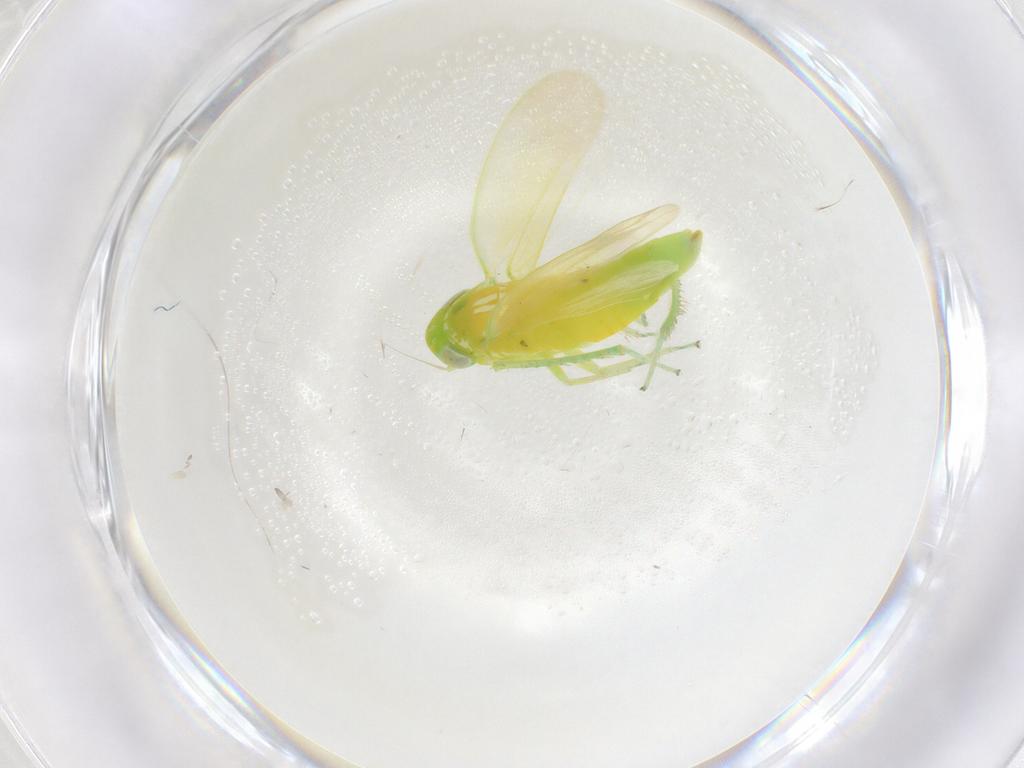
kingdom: Animalia
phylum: Arthropoda
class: Insecta
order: Hemiptera
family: Cicadellidae
